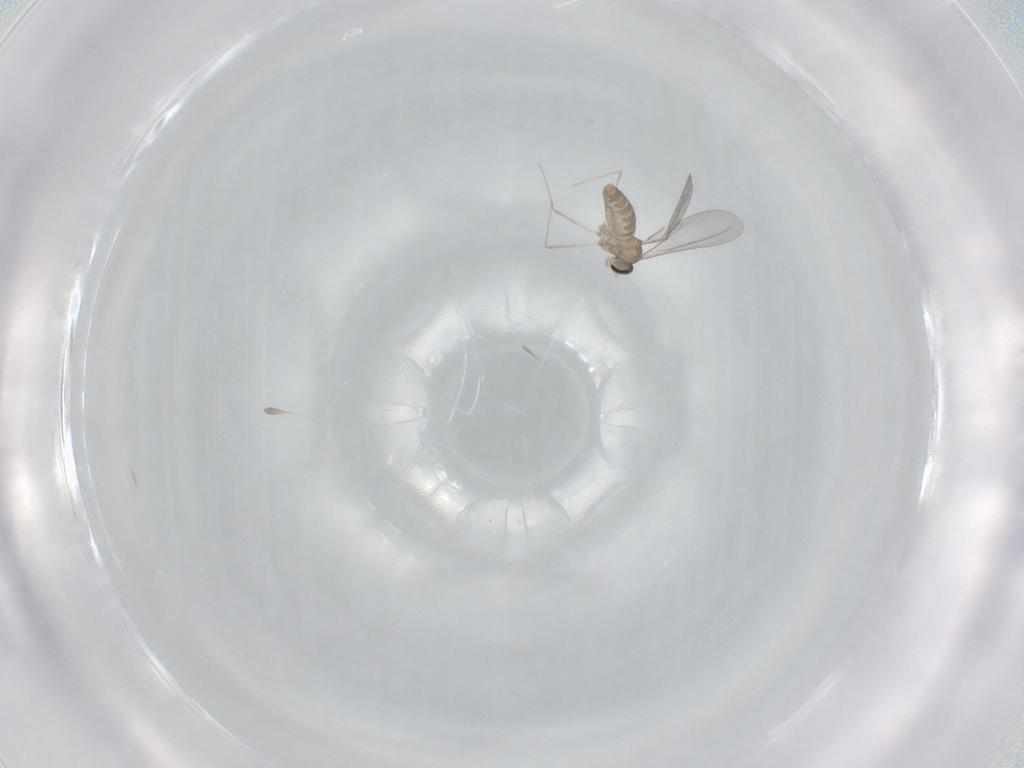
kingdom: Animalia
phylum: Arthropoda
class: Insecta
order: Diptera
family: Cecidomyiidae
